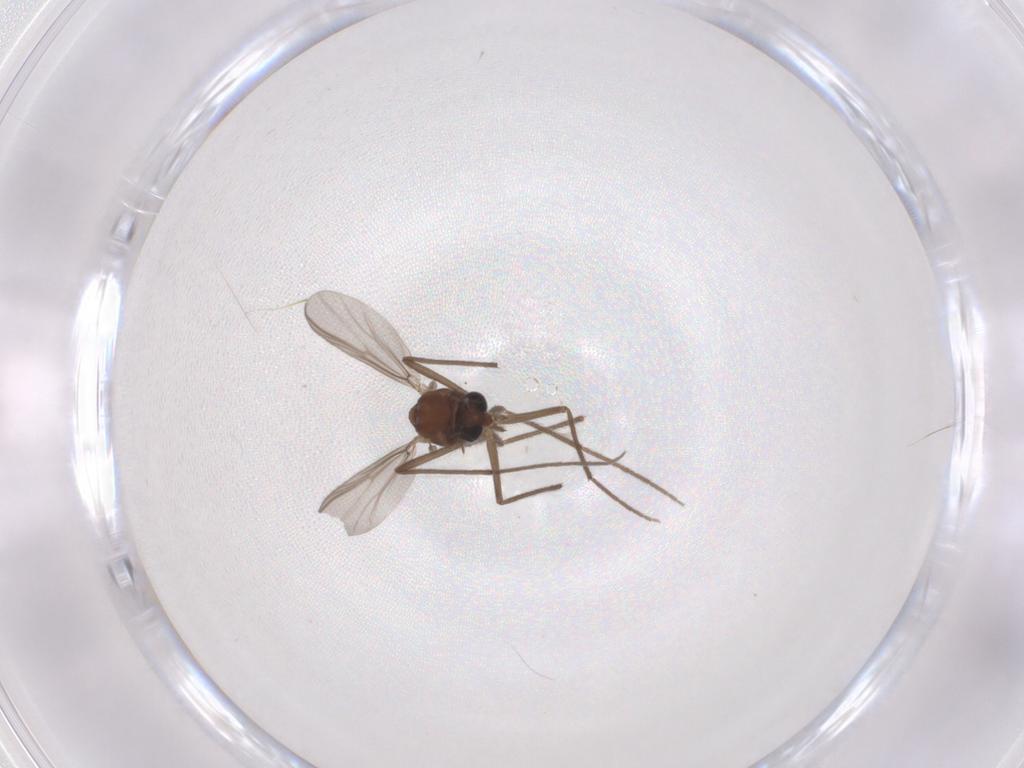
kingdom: Animalia
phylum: Arthropoda
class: Insecta
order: Diptera
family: Chironomidae
